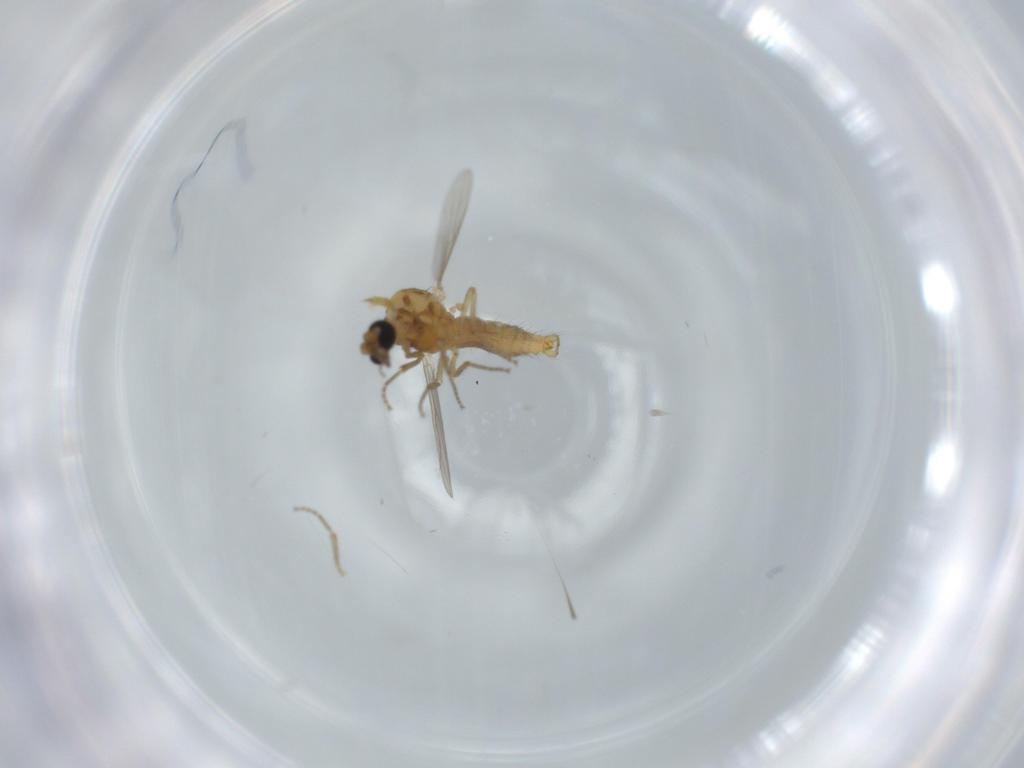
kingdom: Animalia
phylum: Arthropoda
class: Insecta
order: Diptera
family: Ceratopogonidae
